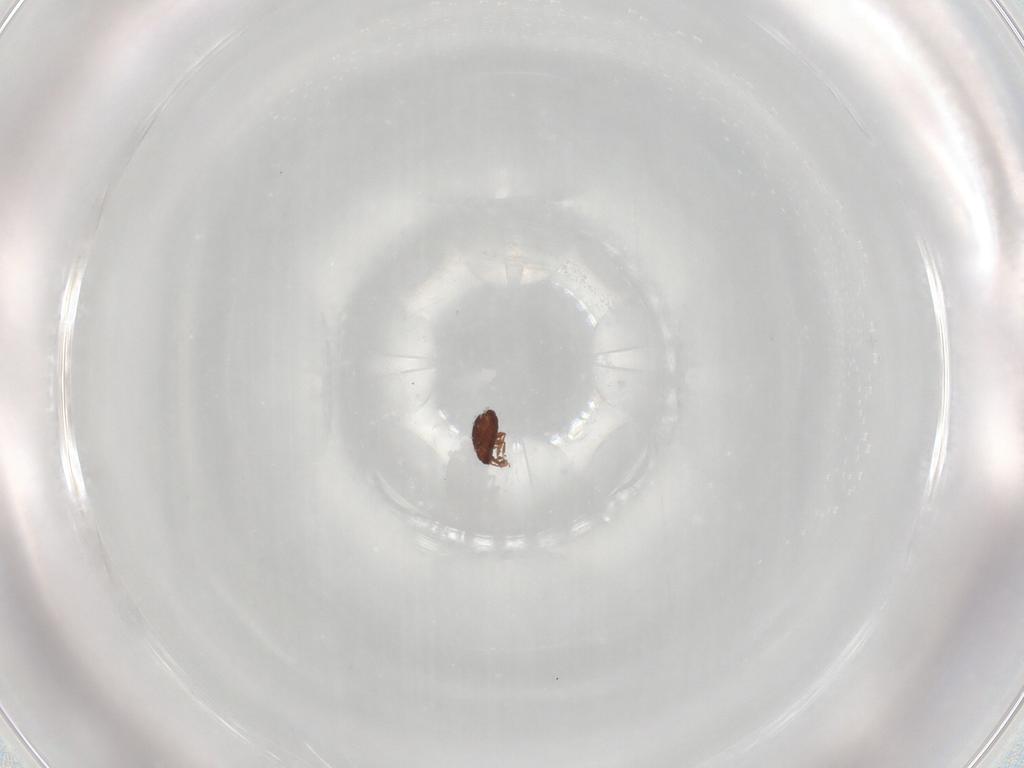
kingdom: Animalia
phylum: Arthropoda
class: Arachnida
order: Sarcoptiformes
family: Scheloribatidae
